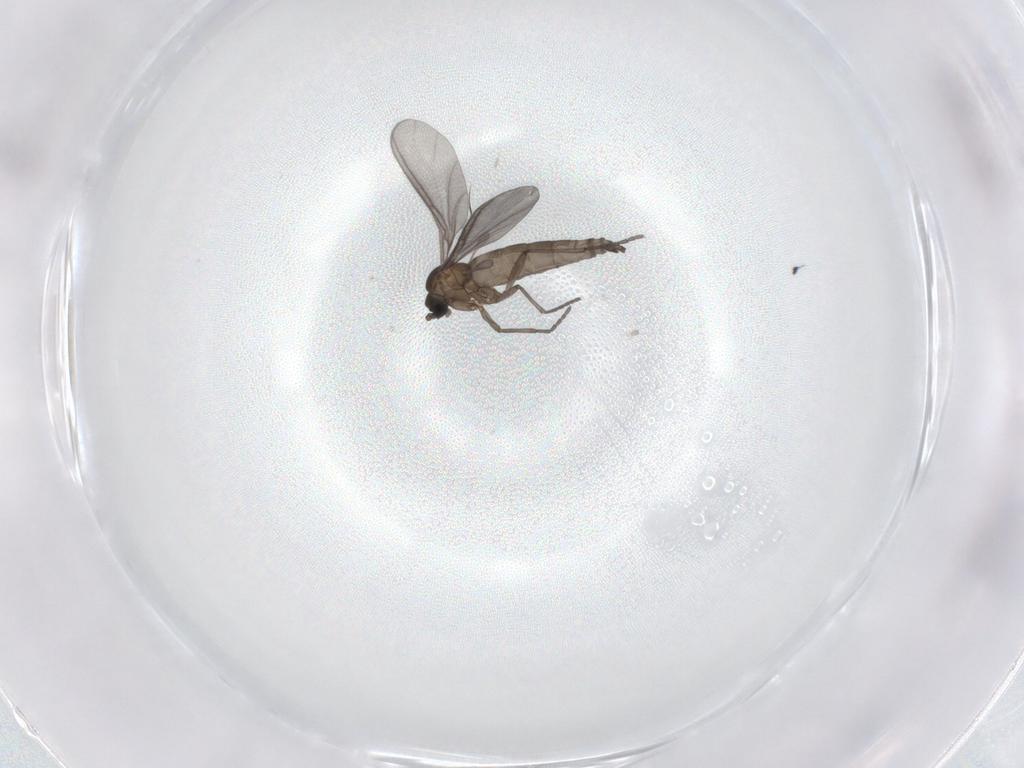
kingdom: Animalia
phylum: Arthropoda
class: Insecta
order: Diptera
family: Sciaridae
